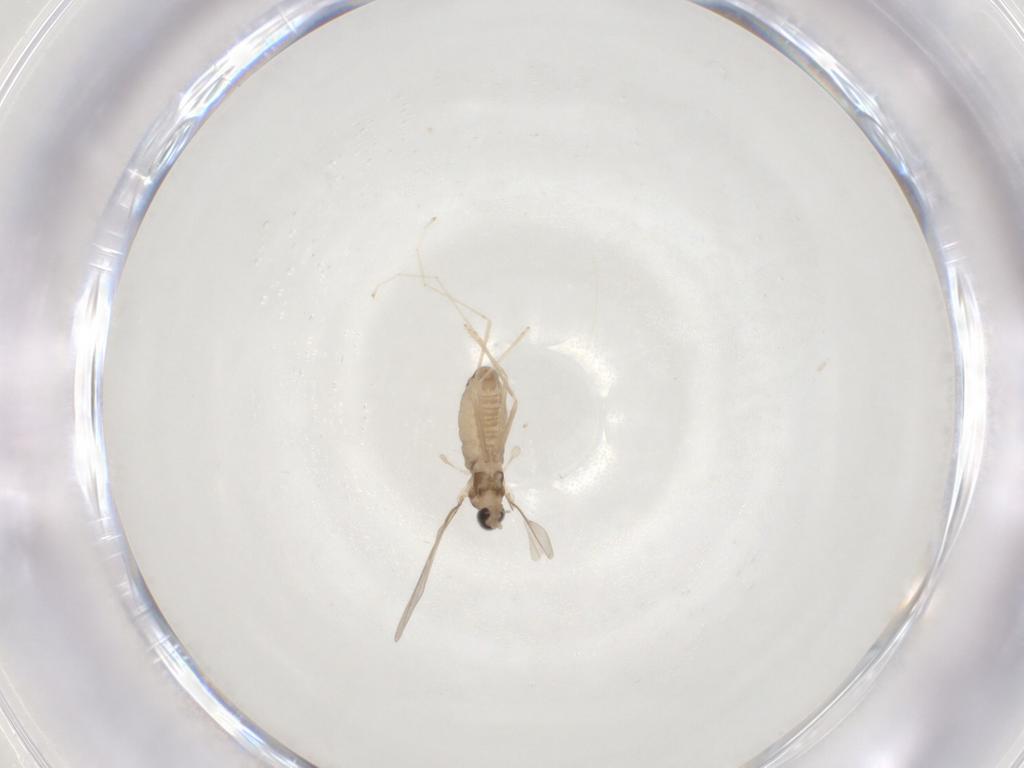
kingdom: Animalia
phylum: Arthropoda
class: Insecta
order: Diptera
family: Cecidomyiidae
